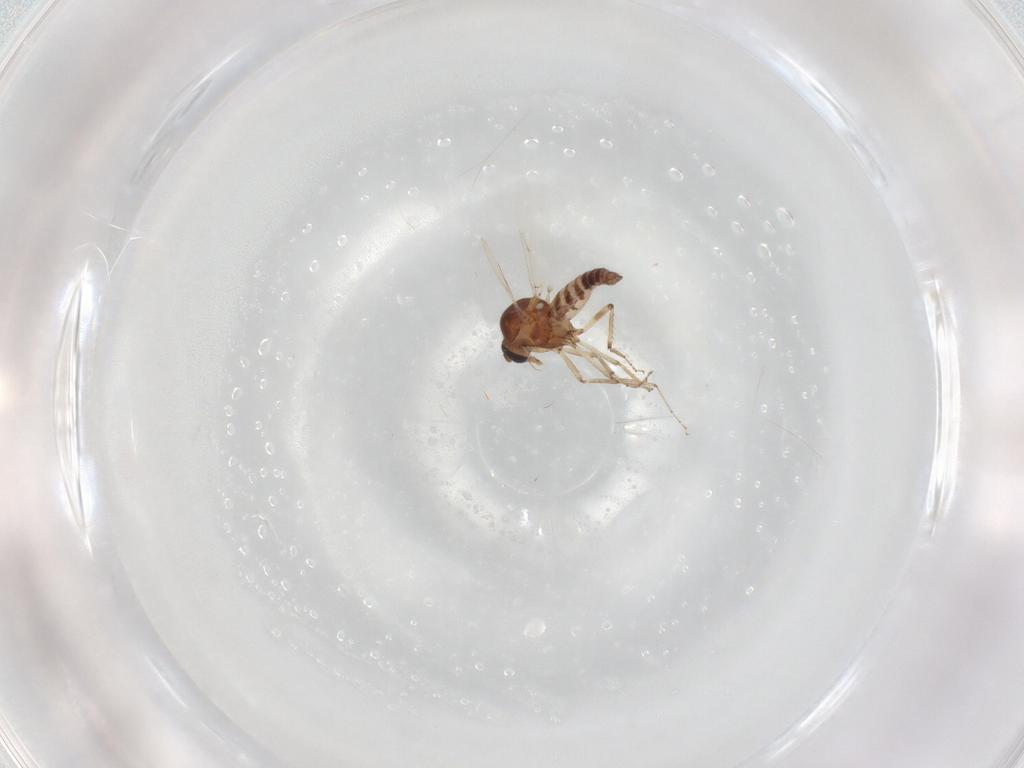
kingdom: Animalia
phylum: Arthropoda
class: Insecta
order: Diptera
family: Ceratopogonidae
